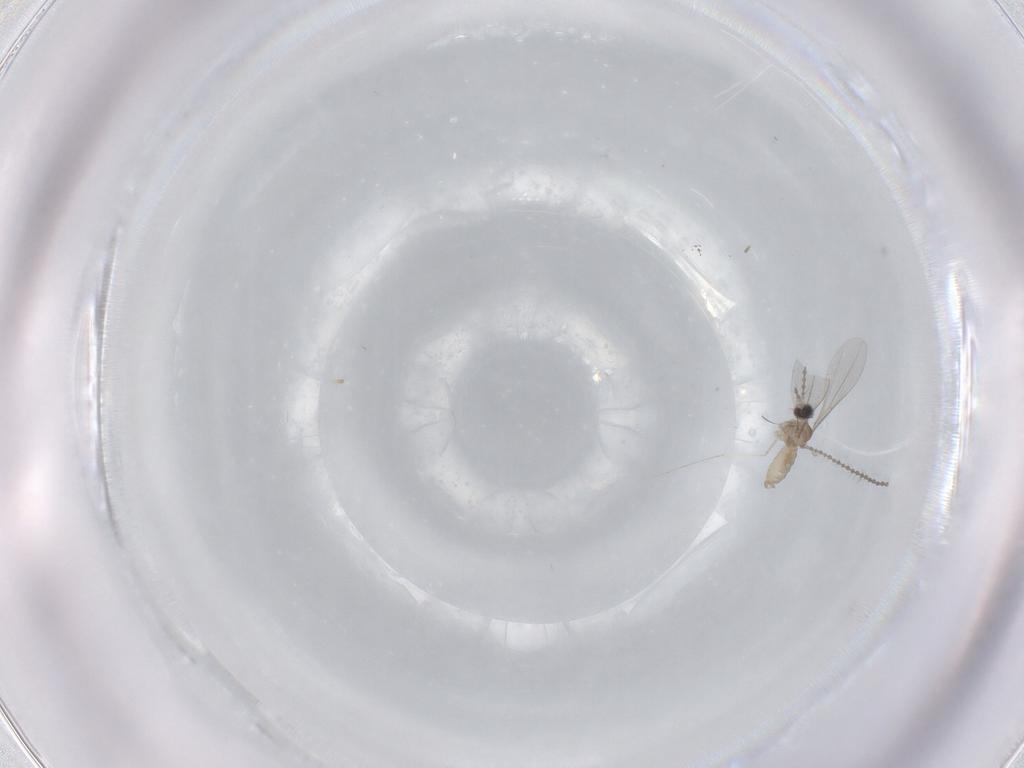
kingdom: Animalia
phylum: Arthropoda
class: Insecta
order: Diptera
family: Cecidomyiidae
